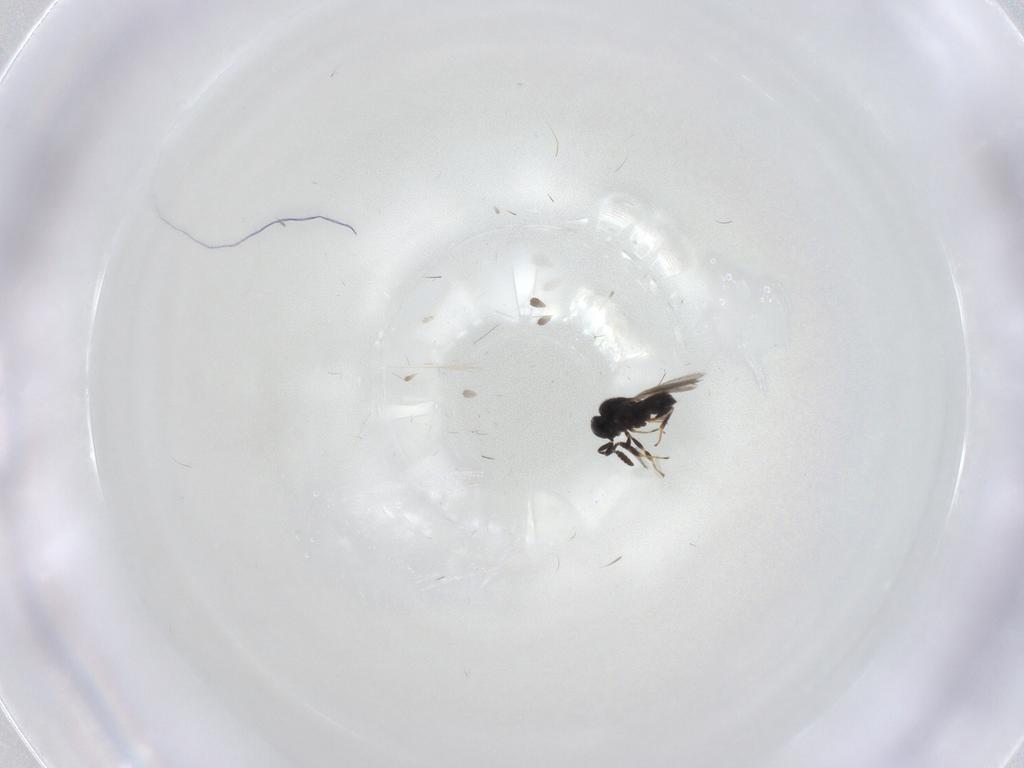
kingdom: Animalia
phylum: Arthropoda
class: Insecta
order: Hymenoptera
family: Scelionidae
